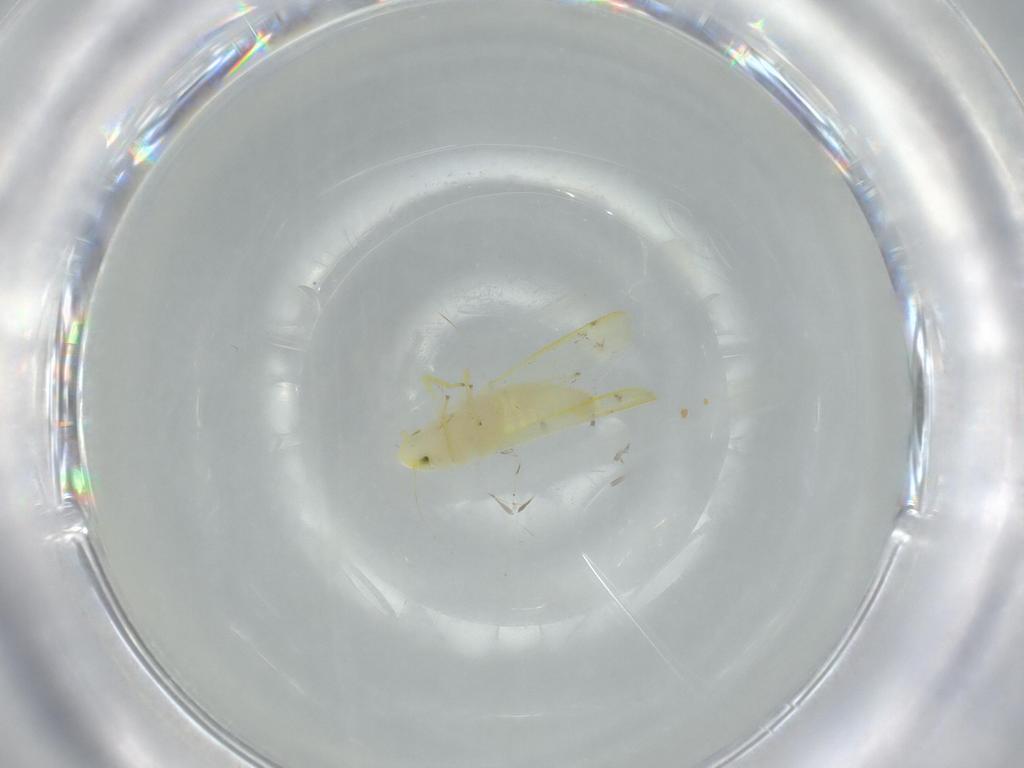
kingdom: Animalia
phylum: Arthropoda
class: Insecta
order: Hemiptera
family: Cicadellidae
